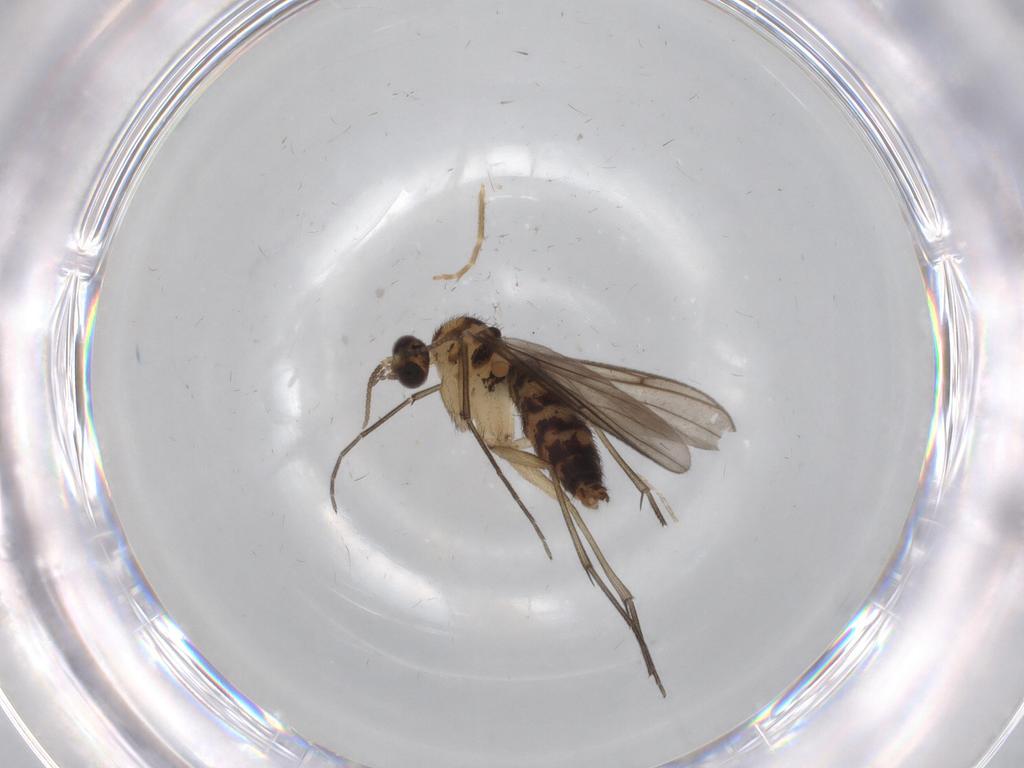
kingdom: Animalia
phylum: Arthropoda
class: Insecta
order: Diptera
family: Keroplatidae
